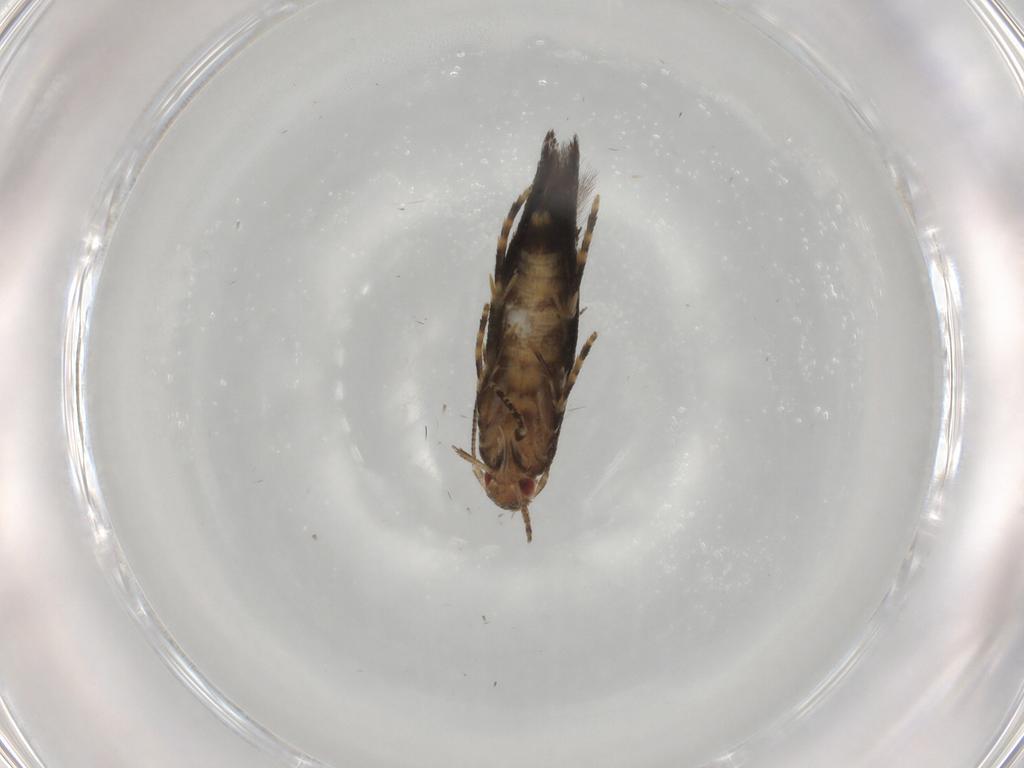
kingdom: Animalia
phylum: Arthropoda
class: Insecta
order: Lepidoptera
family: Momphidae
